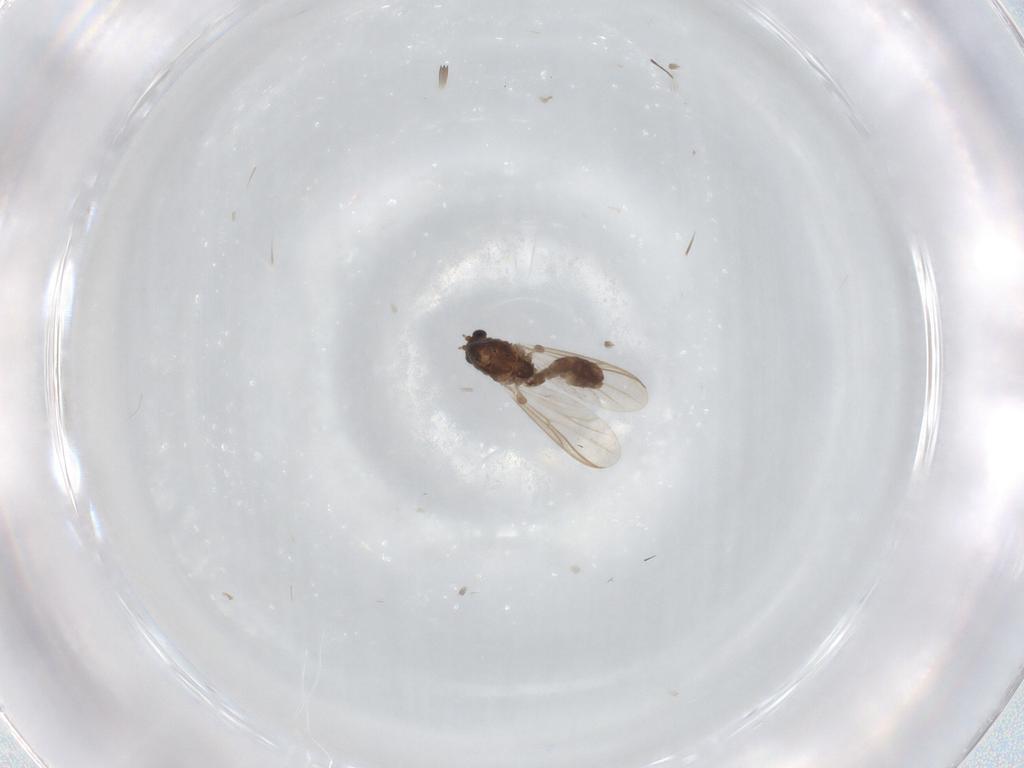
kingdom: Animalia
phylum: Arthropoda
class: Insecta
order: Diptera
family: Chironomidae
